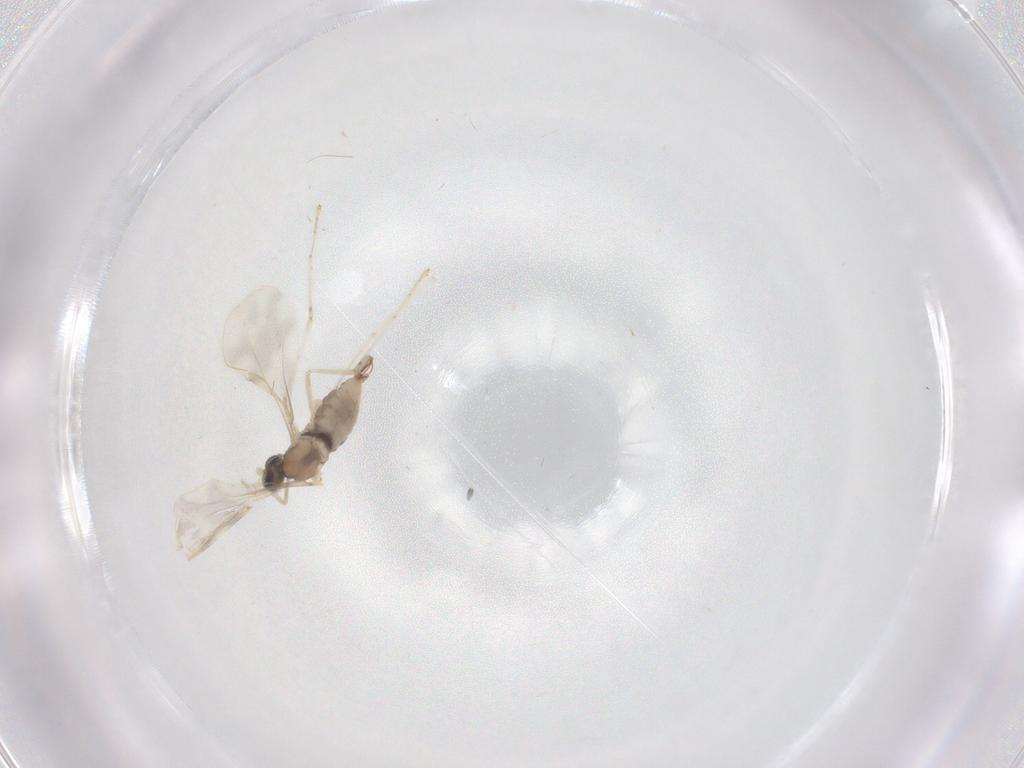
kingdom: Animalia
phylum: Arthropoda
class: Insecta
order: Diptera
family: Cecidomyiidae
